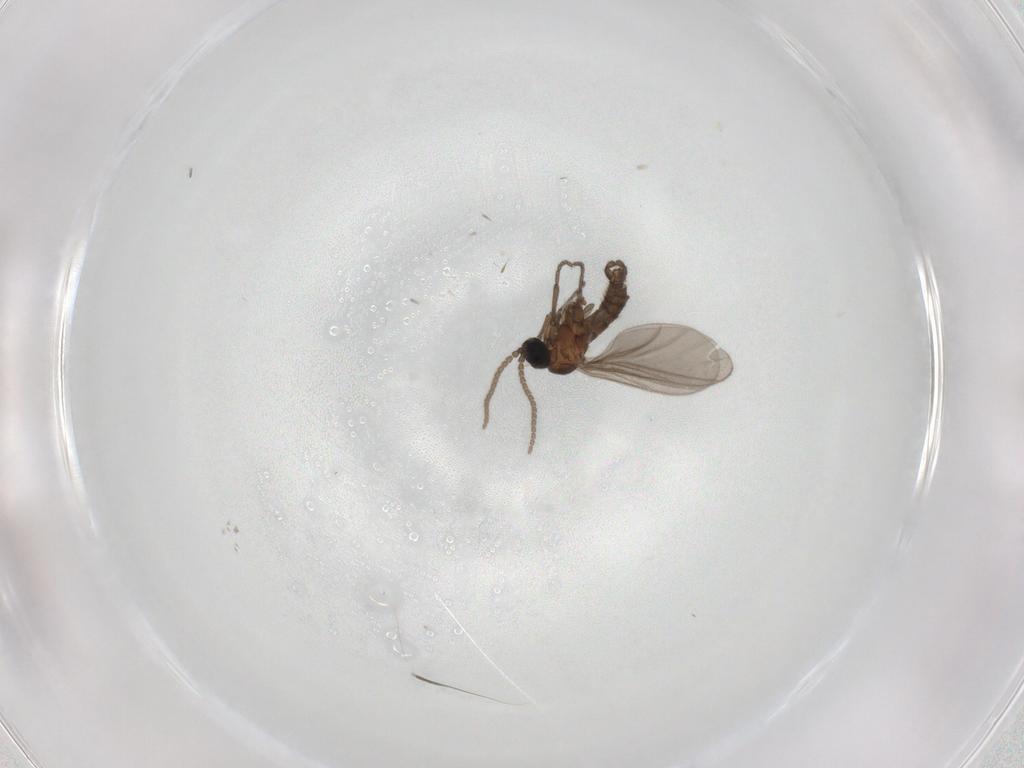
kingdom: Animalia
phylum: Arthropoda
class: Insecta
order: Diptera
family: Sciaridae
